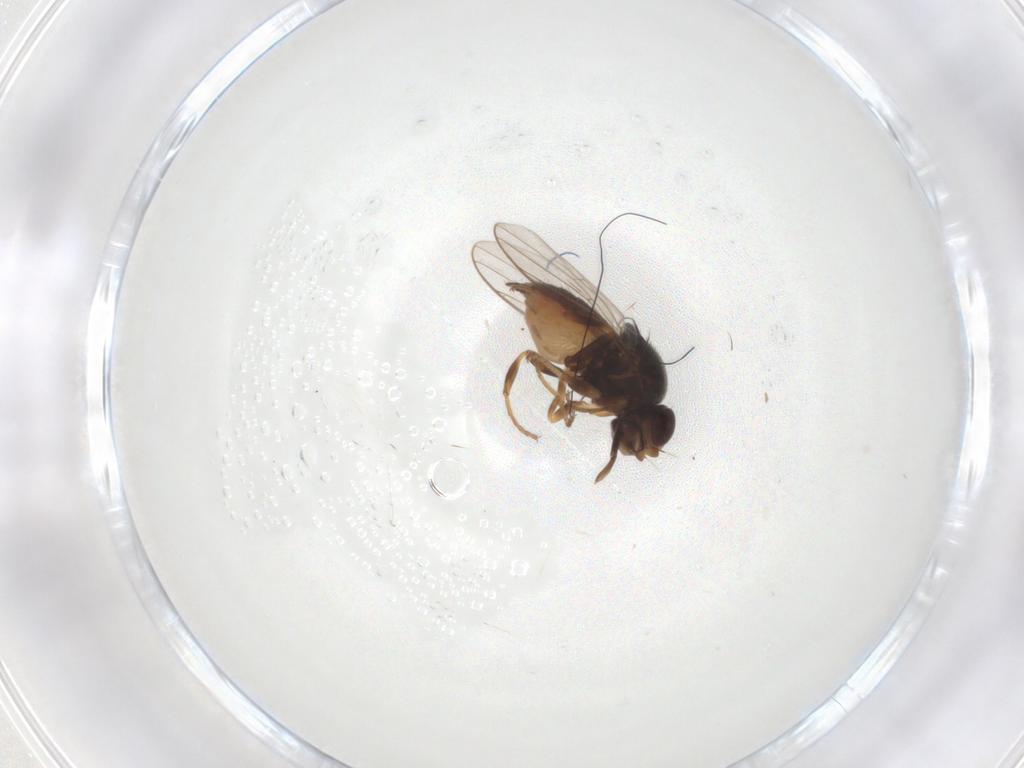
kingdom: Animalia
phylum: Arthropoda
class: Insecta
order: Diptera
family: Chloropidae
